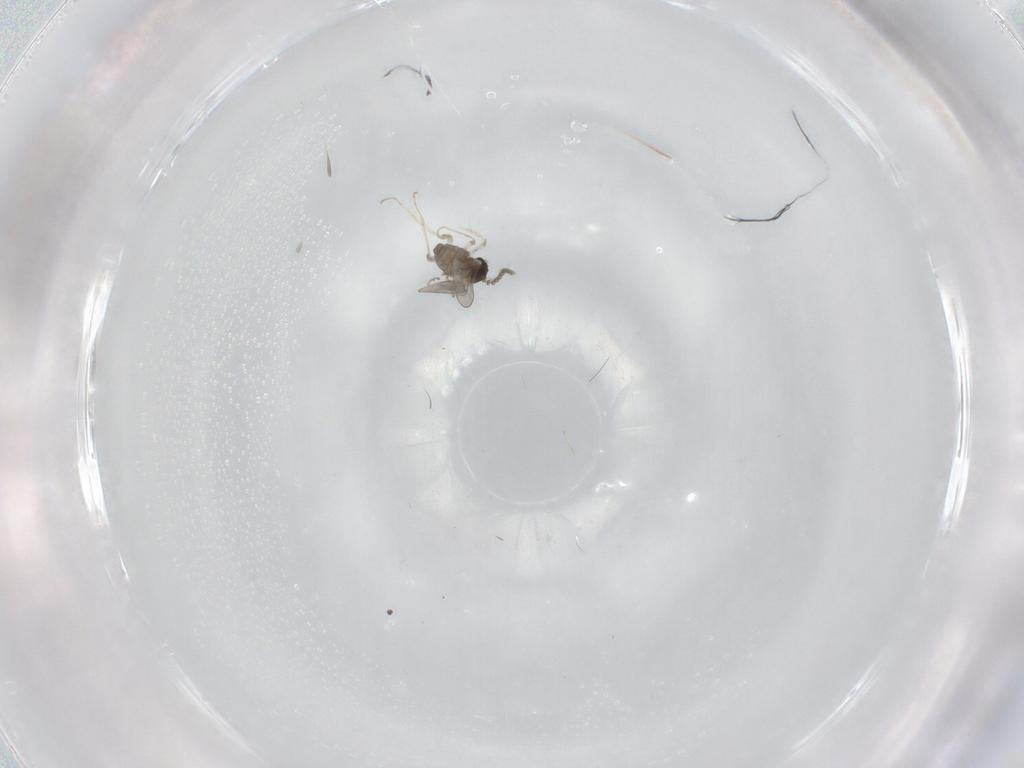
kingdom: Animalia
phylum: Arthropoda
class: Insecta
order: Diptera
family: Cecidomyiidae
